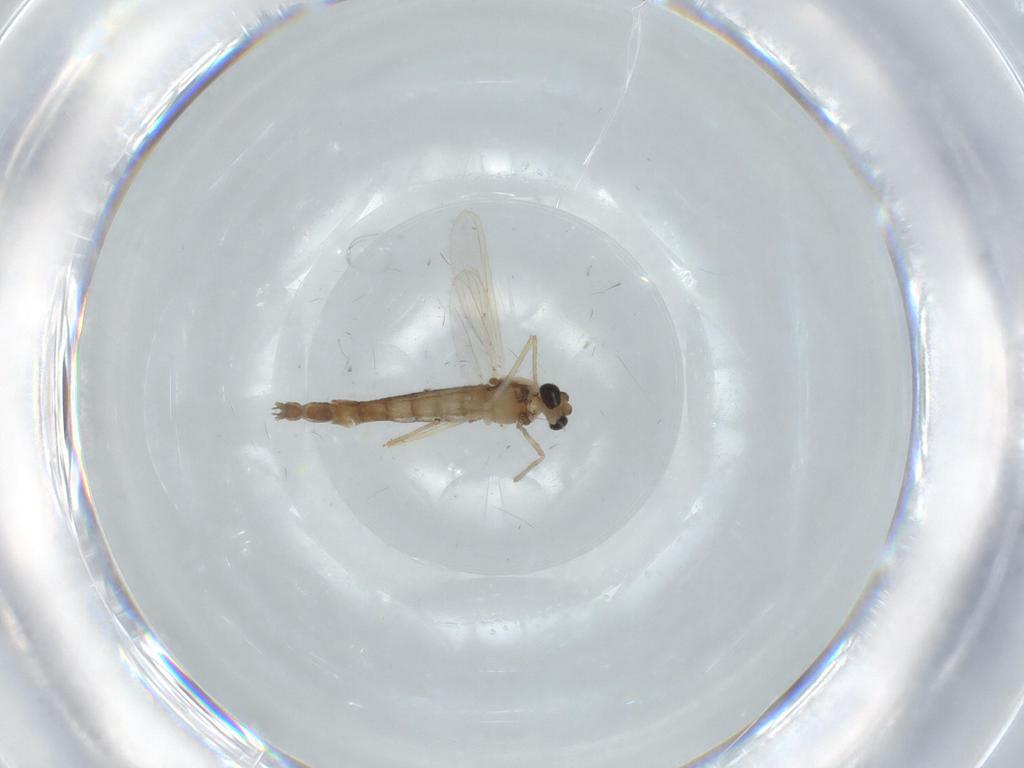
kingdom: Animalia
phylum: Arthropoda
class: Insecta
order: Diptera
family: Chironomidae
